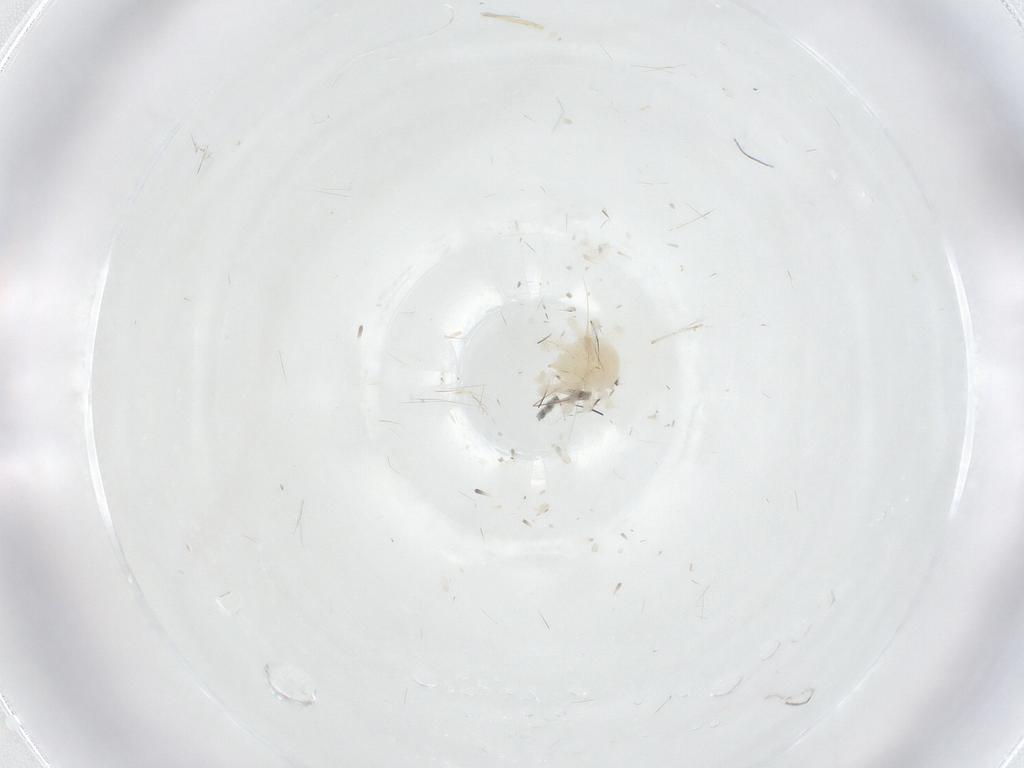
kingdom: Animalia
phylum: Arthropoda
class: Arachnida
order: Trombidiformes
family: Anystidae
